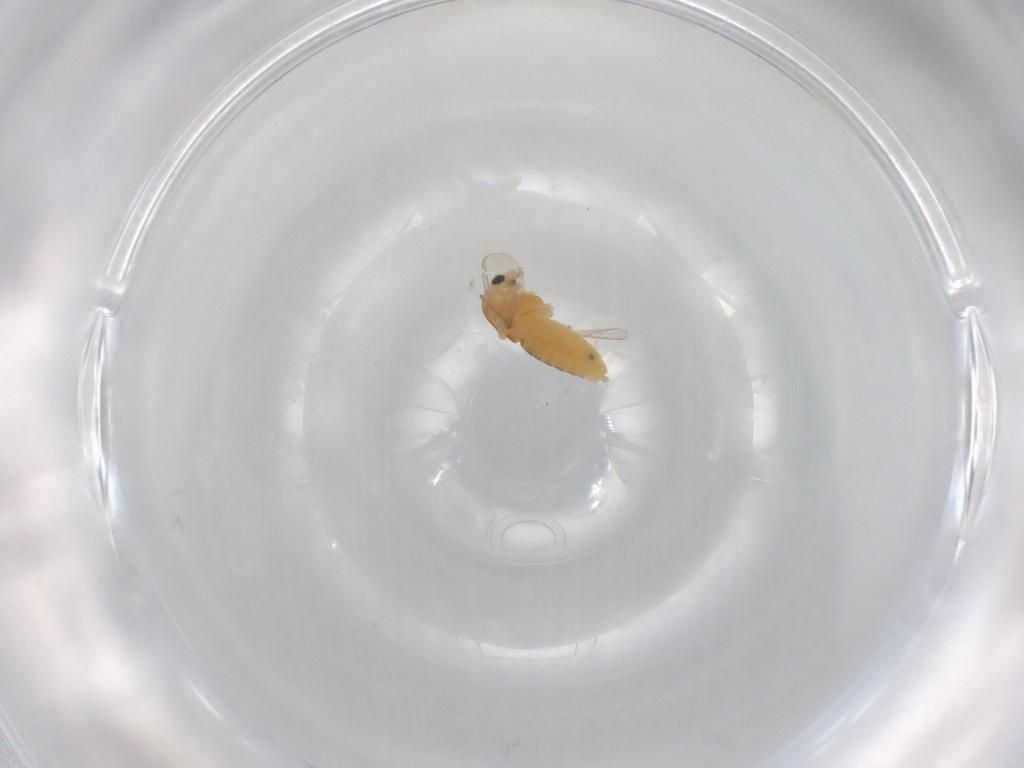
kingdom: Animalia
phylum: Arthropoda
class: Insecta
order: Diptera
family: Chironomidae
